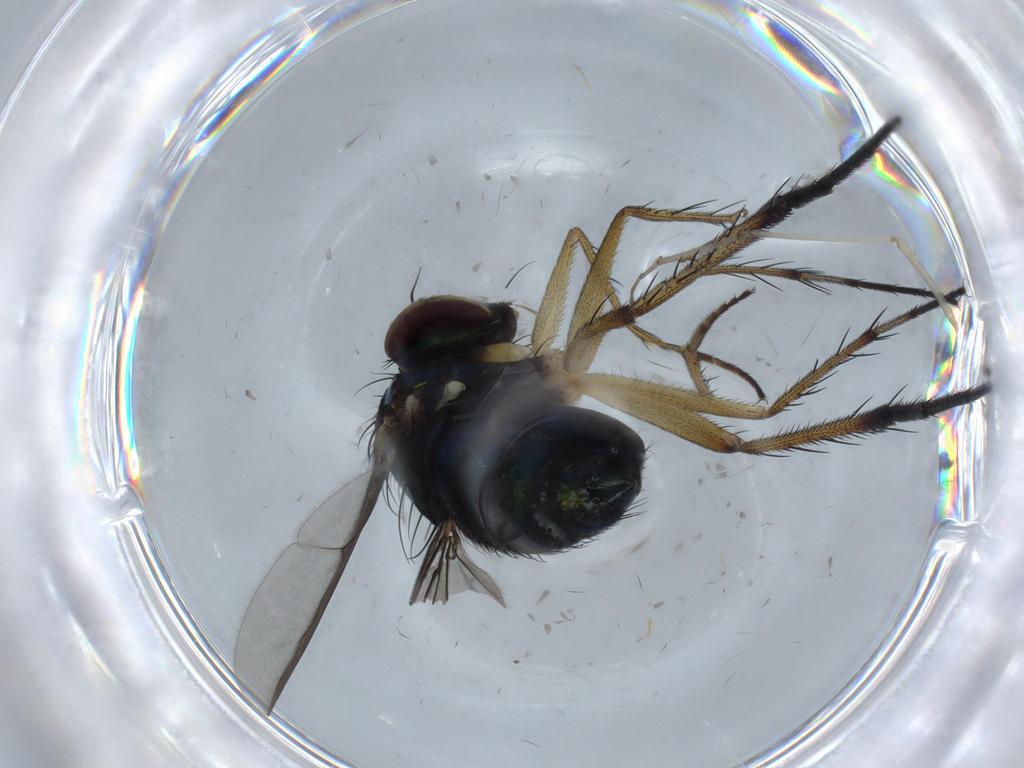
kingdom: Animalia
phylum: Arthropoda
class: Insecta
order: Diptera
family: Dolichopodidae
